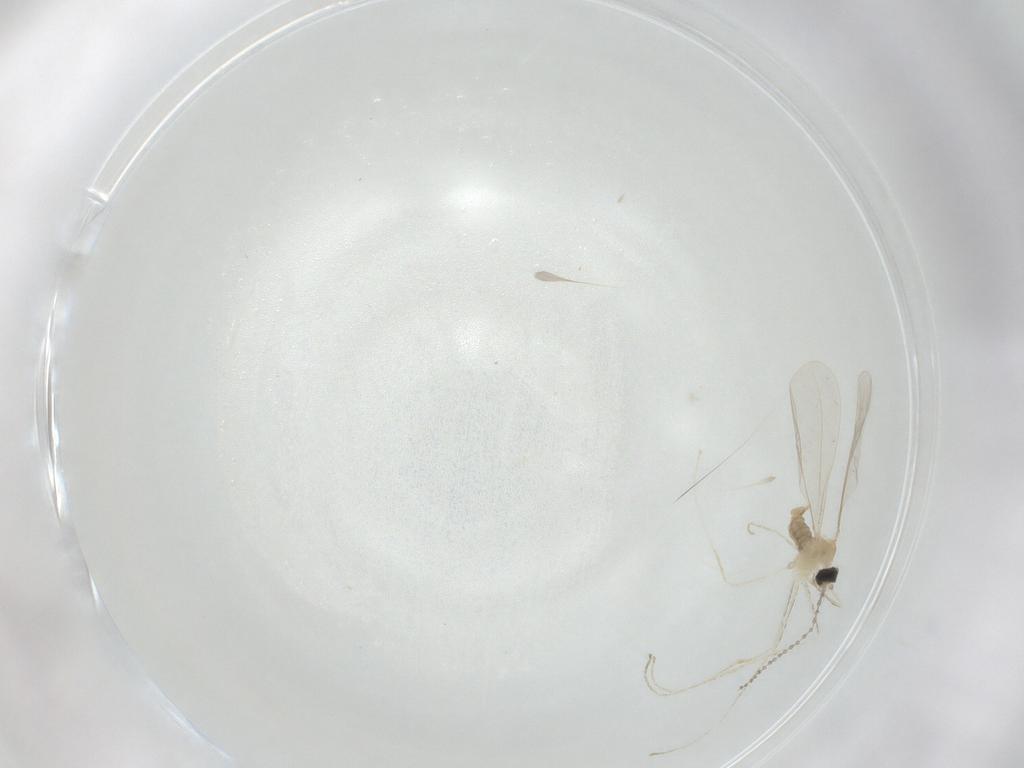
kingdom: Animalia
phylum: Arthropoda
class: Insecta
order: Diptera
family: Cecidomyiidae
